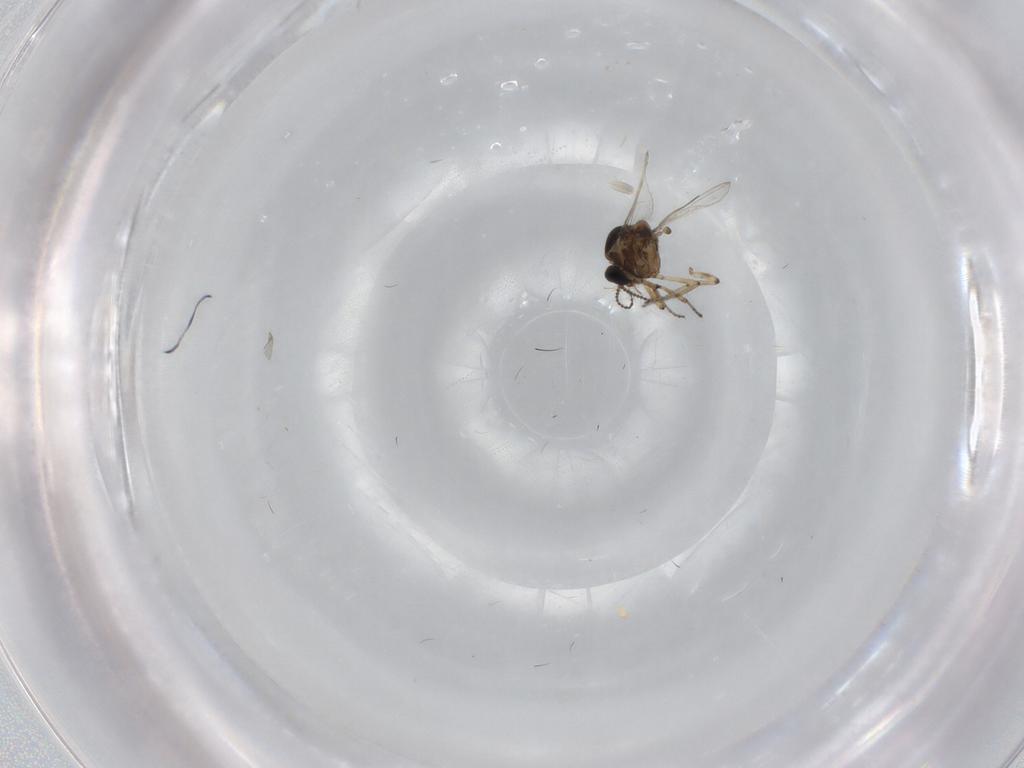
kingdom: Animalia
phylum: Arthropoda
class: Insecta
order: Diptera
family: Ceratopogonidae
